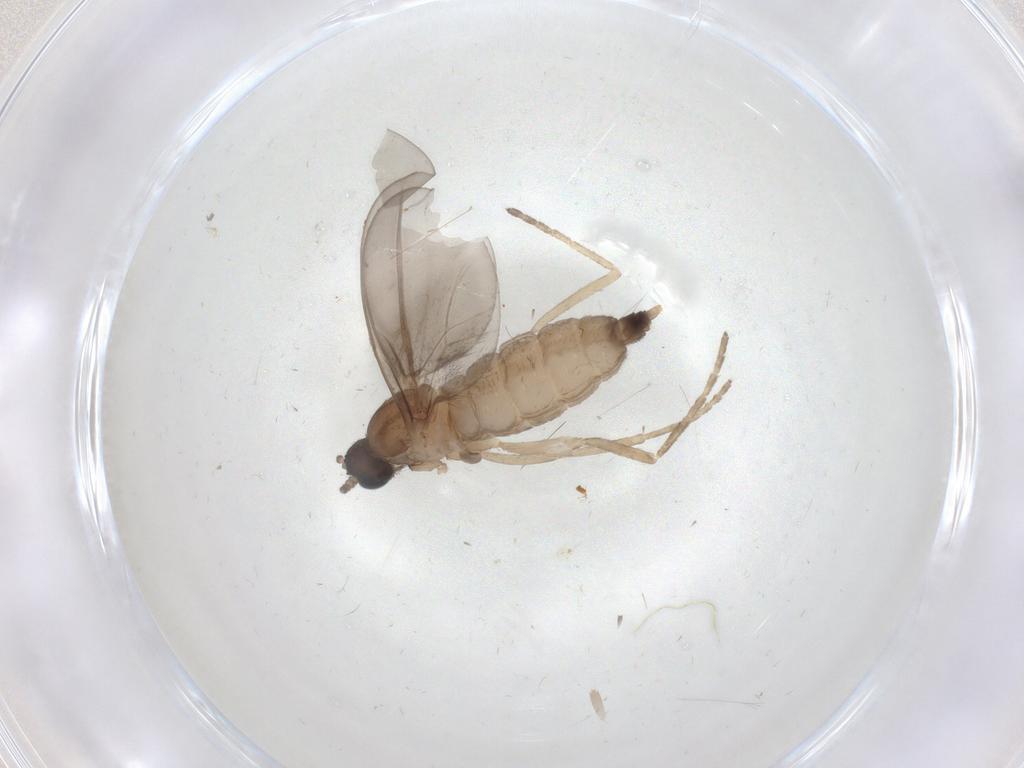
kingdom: Animalia
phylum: Arthropoda
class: Insecta
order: Diptera
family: Cecidomyiidae
